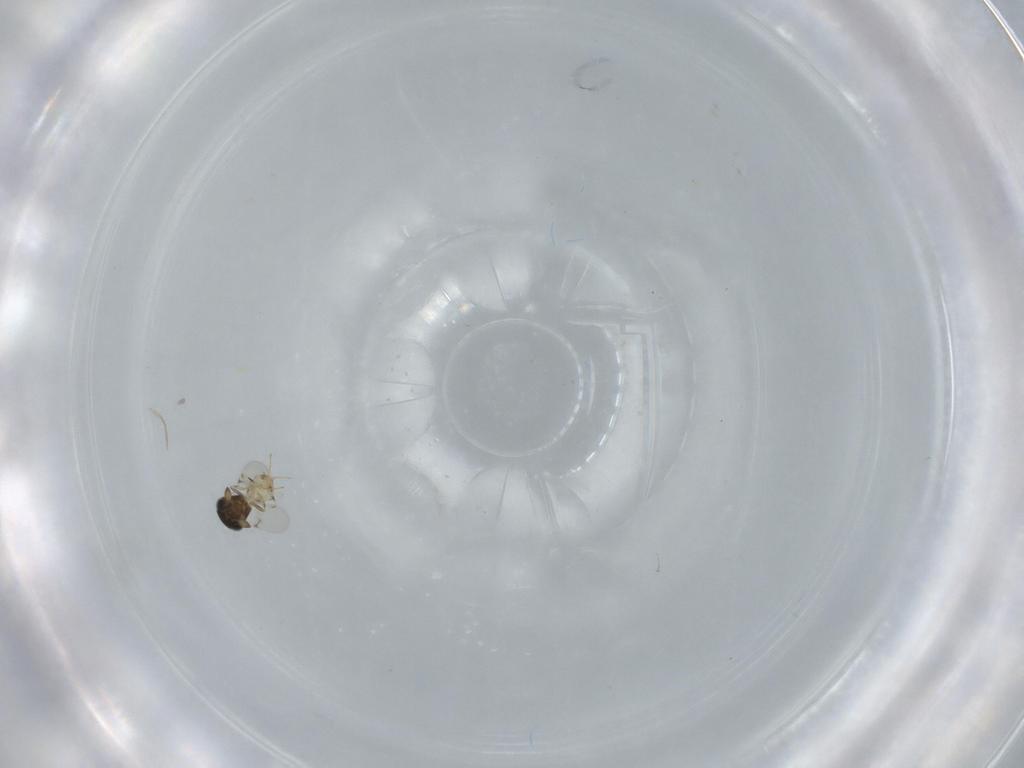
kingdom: Animalia
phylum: Arthropoda
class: Insecta
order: Hymenoptera
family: Scelionidae
